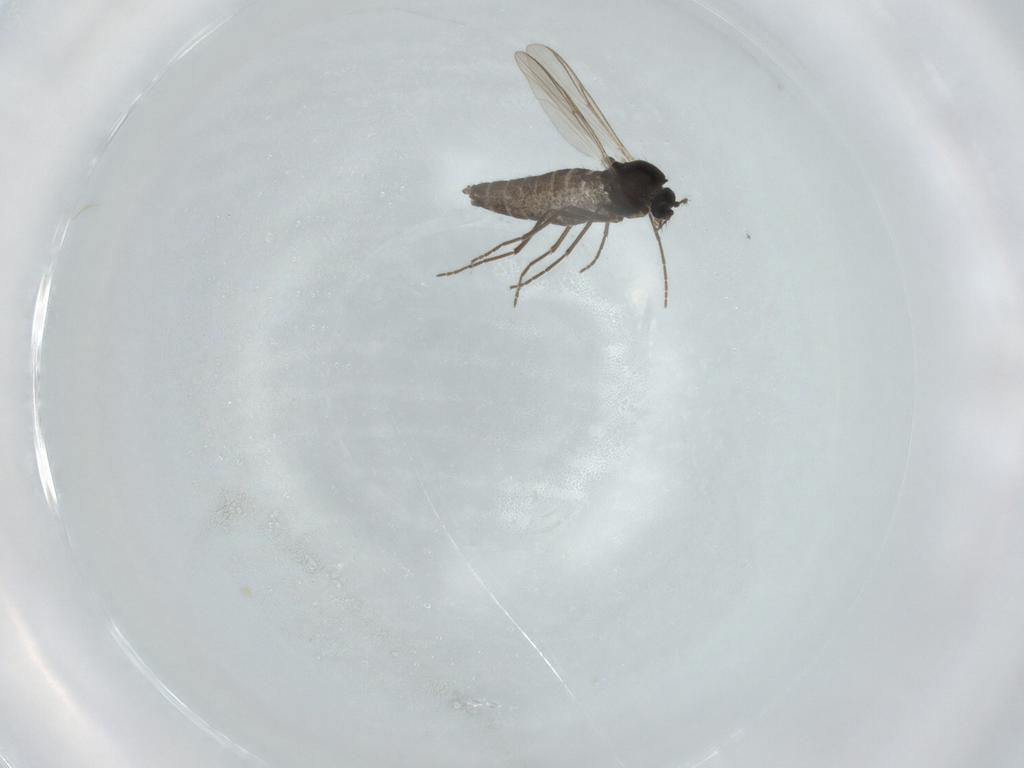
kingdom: Animalia
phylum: Arthropoda
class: Insecta
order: Diptera
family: Chironomidae
